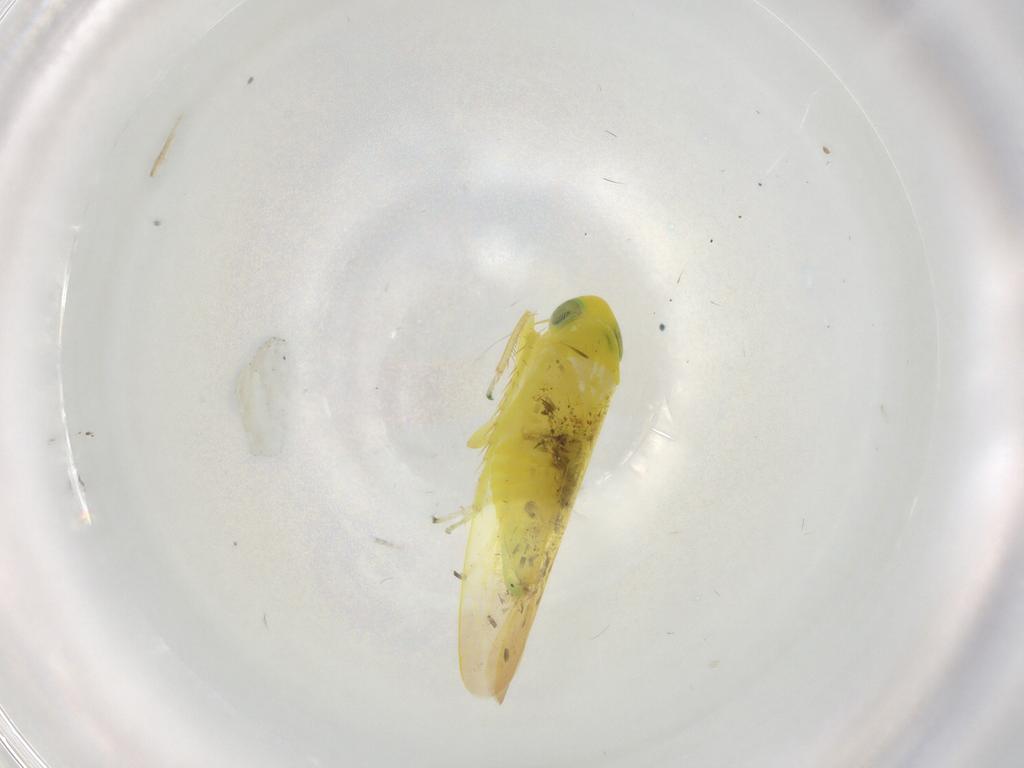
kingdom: Animalia
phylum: Arthropoda
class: Insecta
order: Hemiptera
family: Cicadellidae
